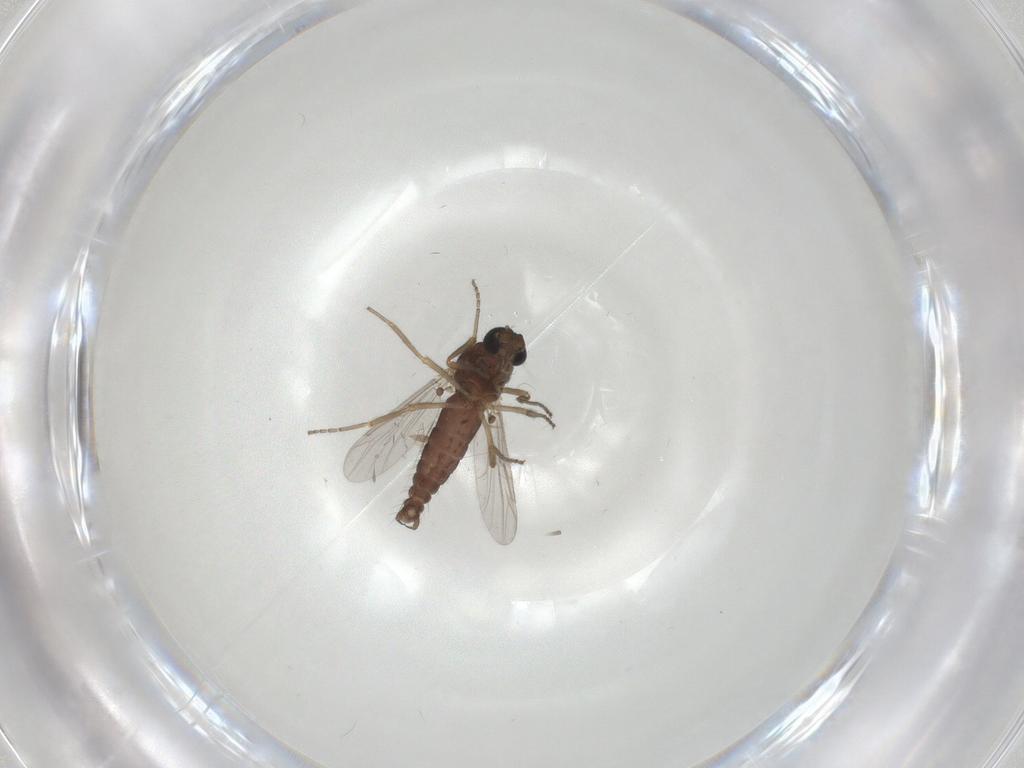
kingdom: Animalia
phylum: Arthropoda
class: Insecta
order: Diptera
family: Ceratopogonidae
